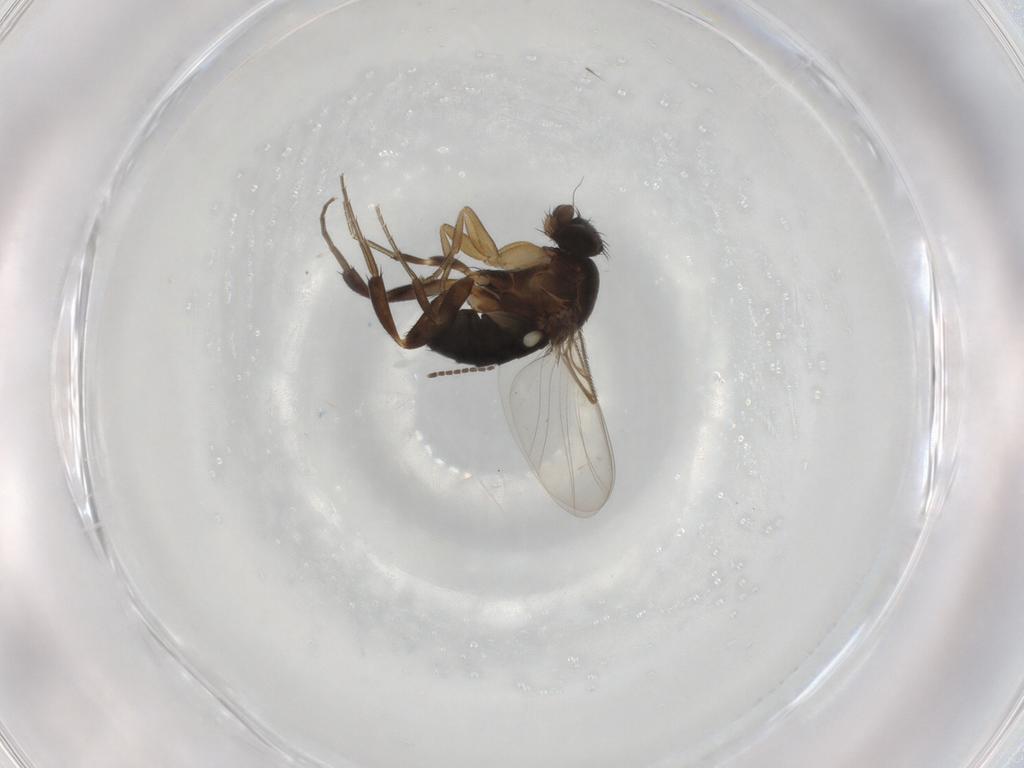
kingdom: Animalia
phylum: Arthropoda
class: Insecta
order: Diptera
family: Phoridae
